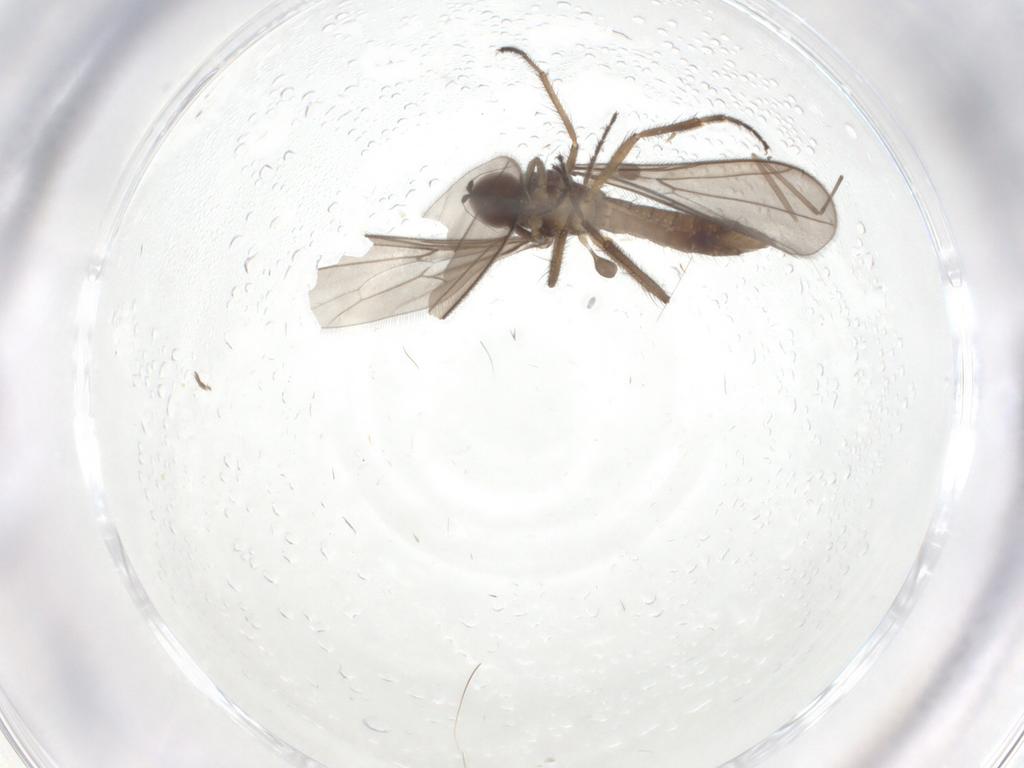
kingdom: Animalia
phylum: Arthropoda
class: Insecta
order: Diptera
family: Hybotidae
